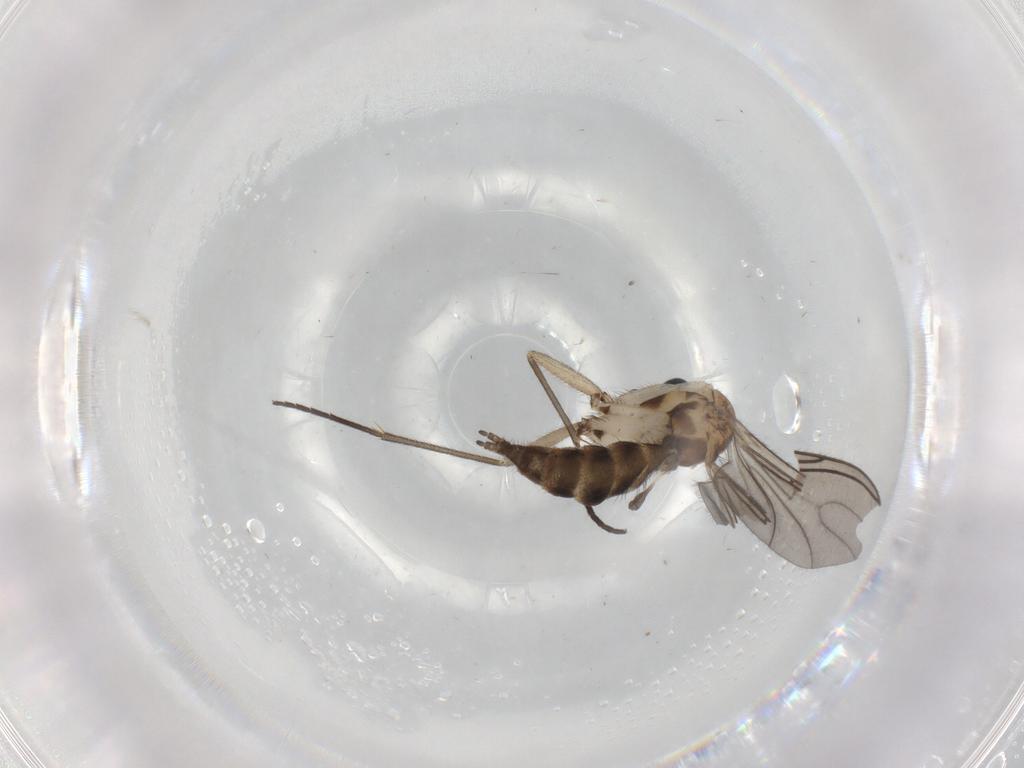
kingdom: Animalia
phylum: Arthropoda
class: Insecta
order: Diptera
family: Sciaridae
